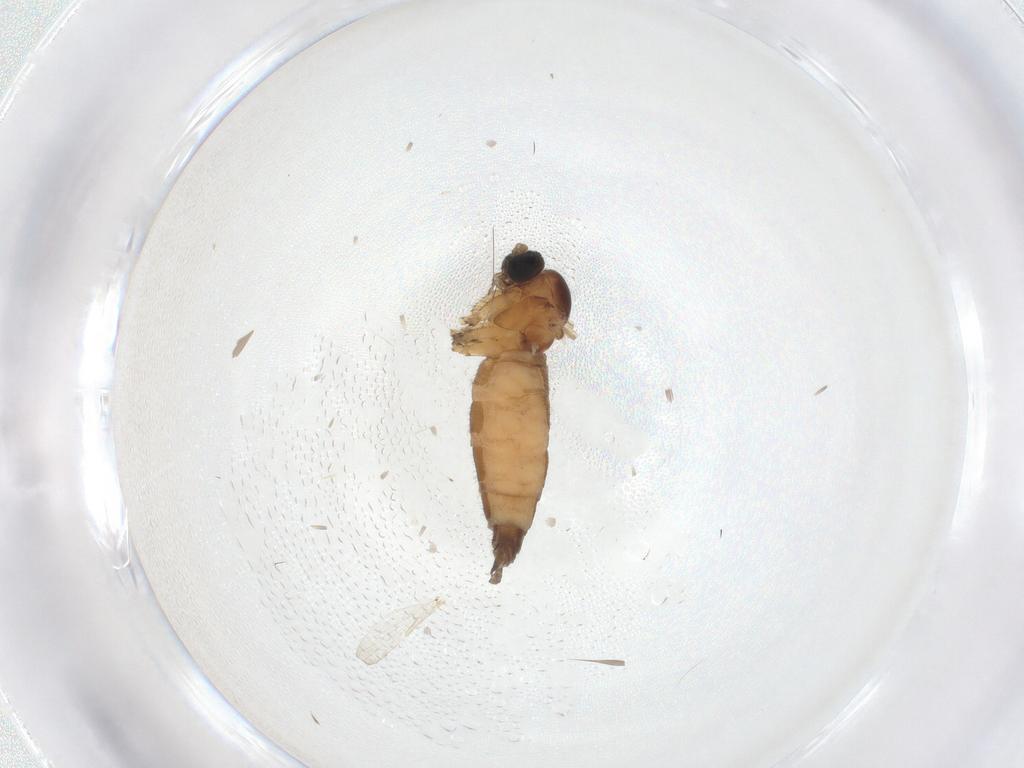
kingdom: Animalia
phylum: Arthropoda
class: Insecta
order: Diptera
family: Sciaridae
